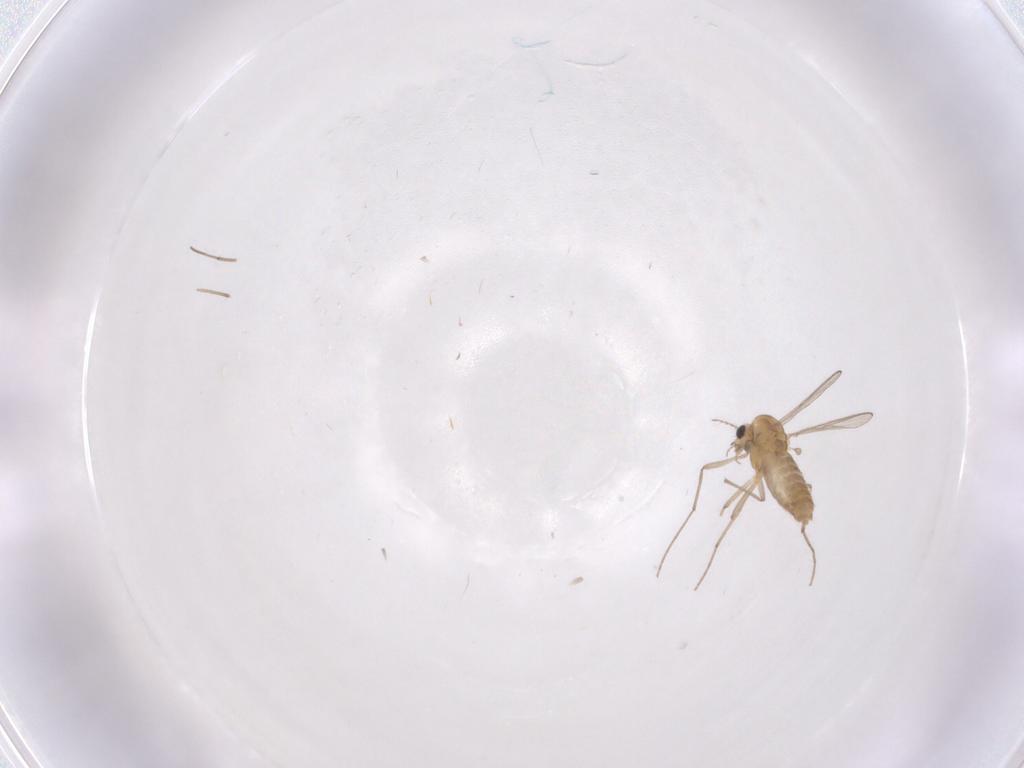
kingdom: Animalia
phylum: Arthropoda
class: Insecta
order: Diptera
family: Chironomidae
